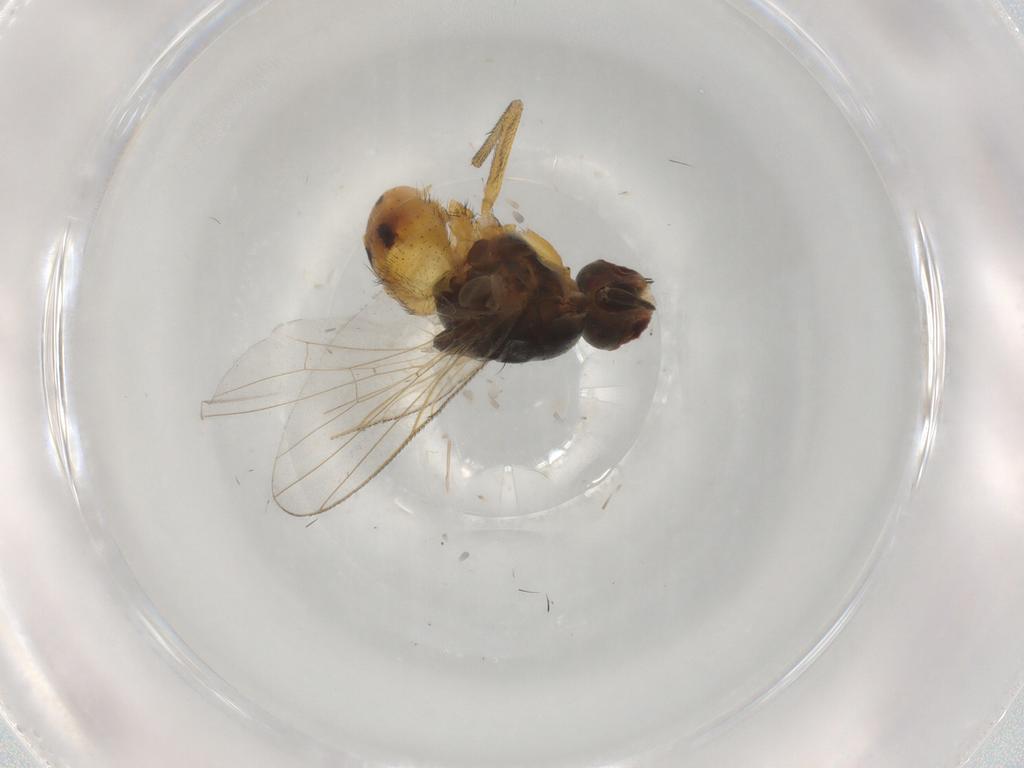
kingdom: Animalia
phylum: Arthropoda
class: Insecta
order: Diptera
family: Muscidae
